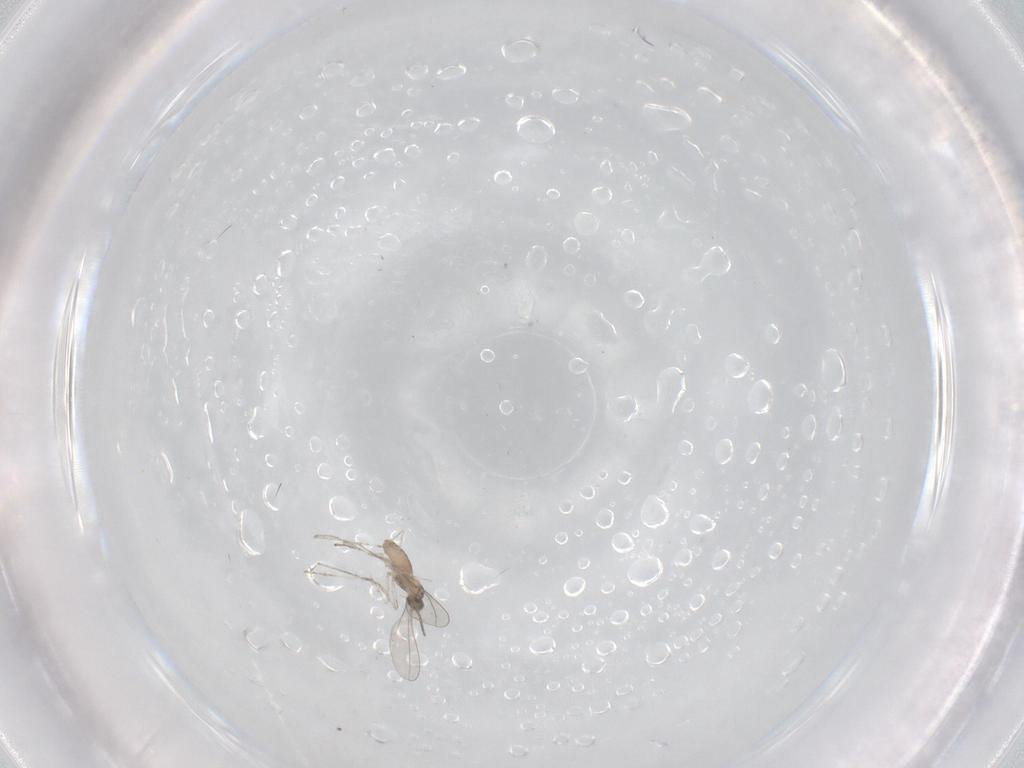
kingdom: Animalia
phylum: Arthropoda
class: Insecta
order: Diptera
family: Cecidomyiidae
